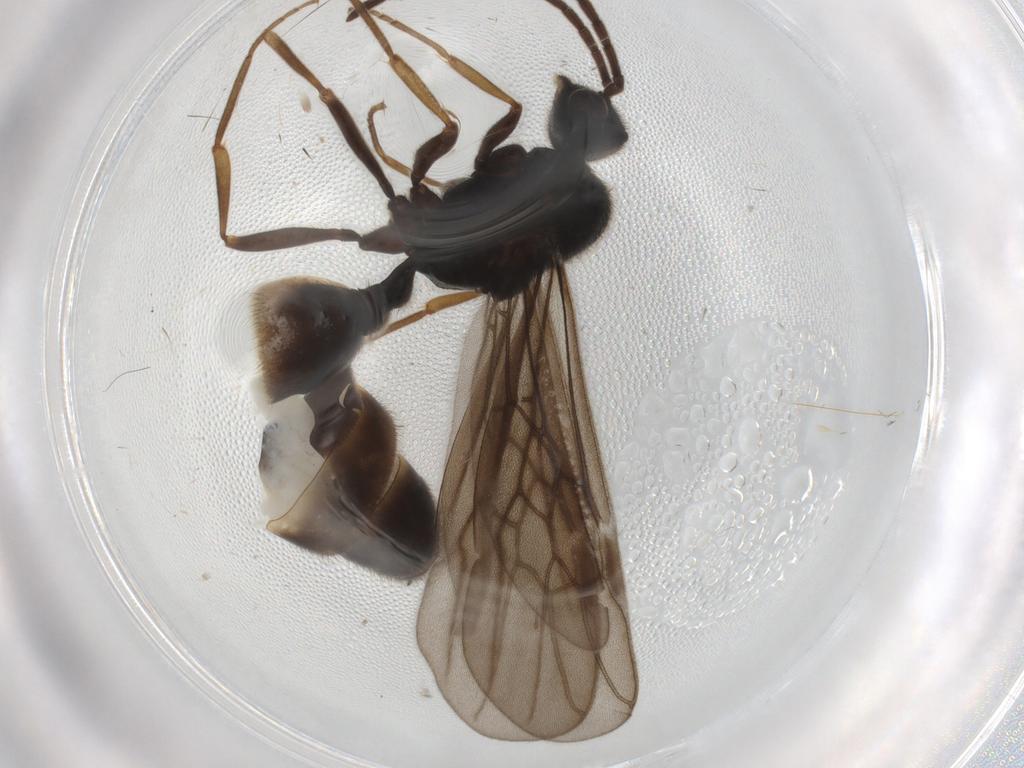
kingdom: Animalia
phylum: Arthropoda
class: Insecta
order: Hymenoptera
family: Formicidae
